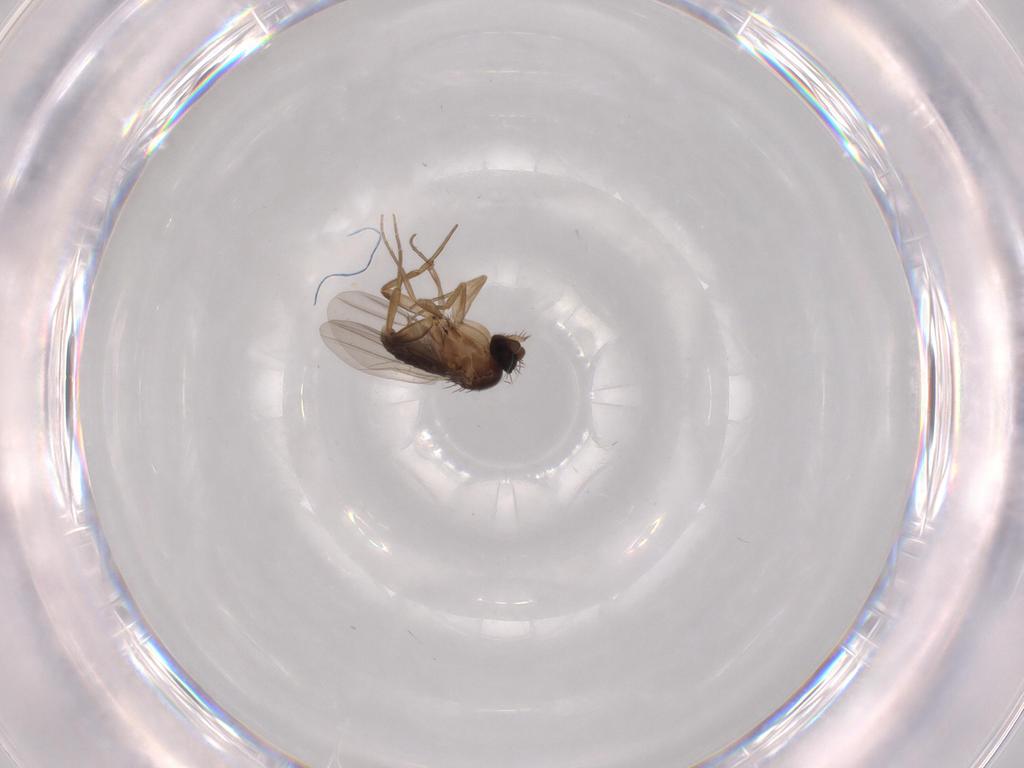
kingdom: Animalia
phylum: Arthropoda
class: Insecta
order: Diptera
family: Phoridae
